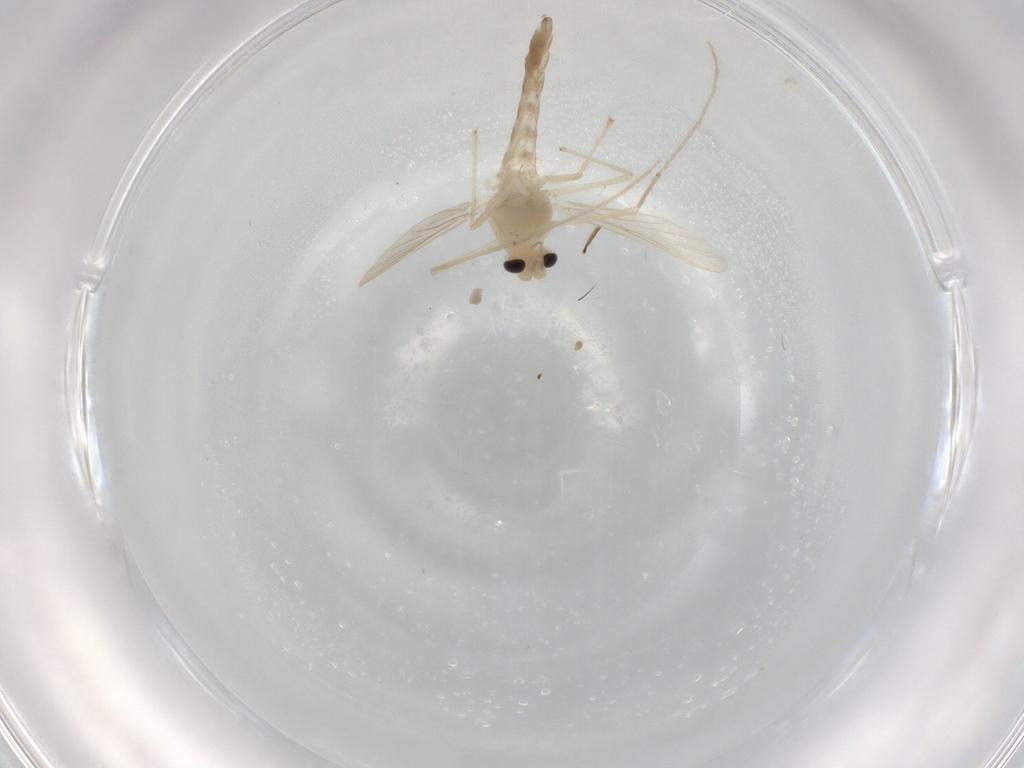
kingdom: Animalia
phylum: Arthropoda
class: Insecta
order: Diptera
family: Chironomidae
